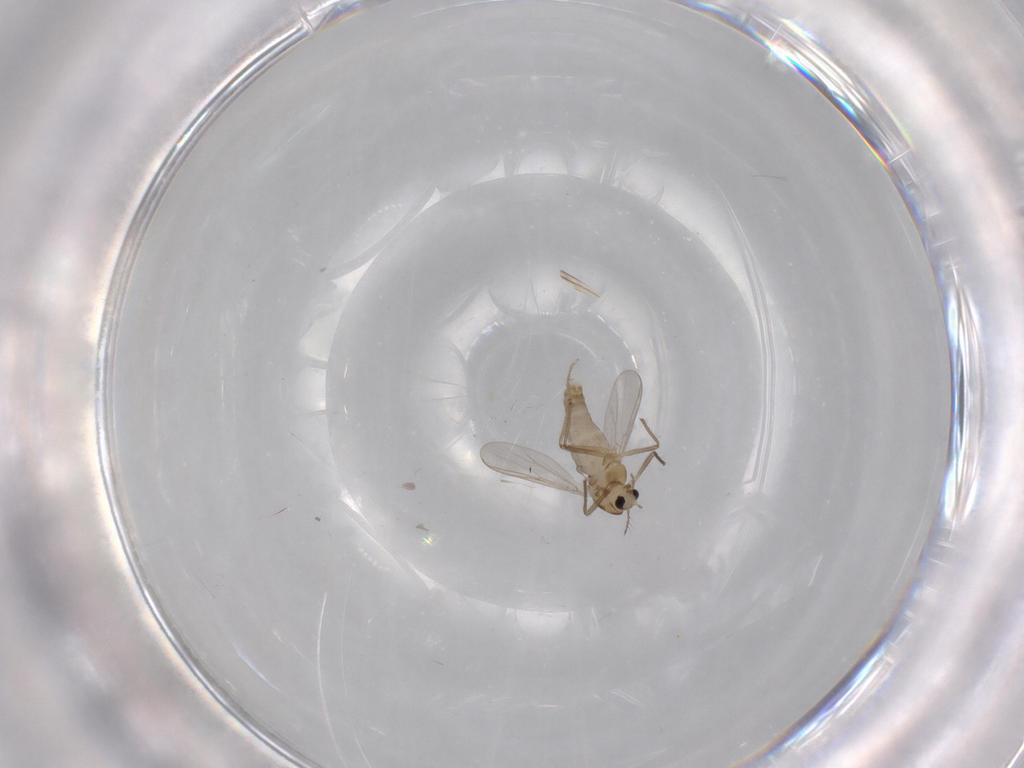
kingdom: Animalia
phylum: Arthropoda
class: Insecta
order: Diptera
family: Chironomidae
